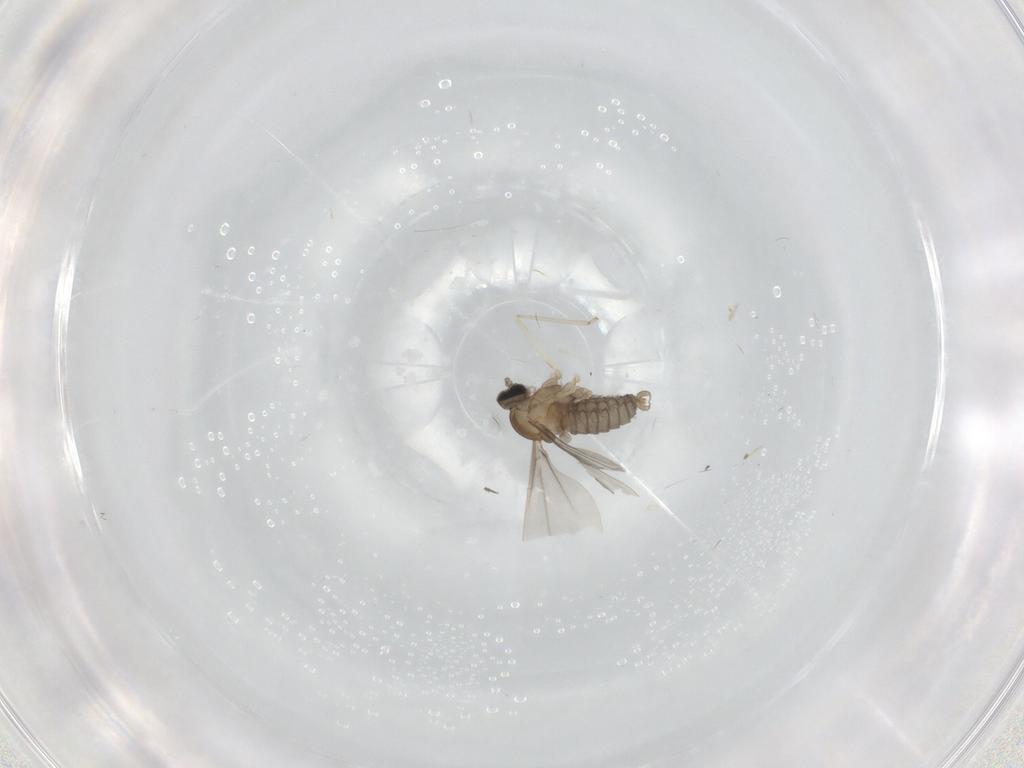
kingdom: Animalia
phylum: Arthropoda
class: Insecta
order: Diptera
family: Cecidomyiidae
